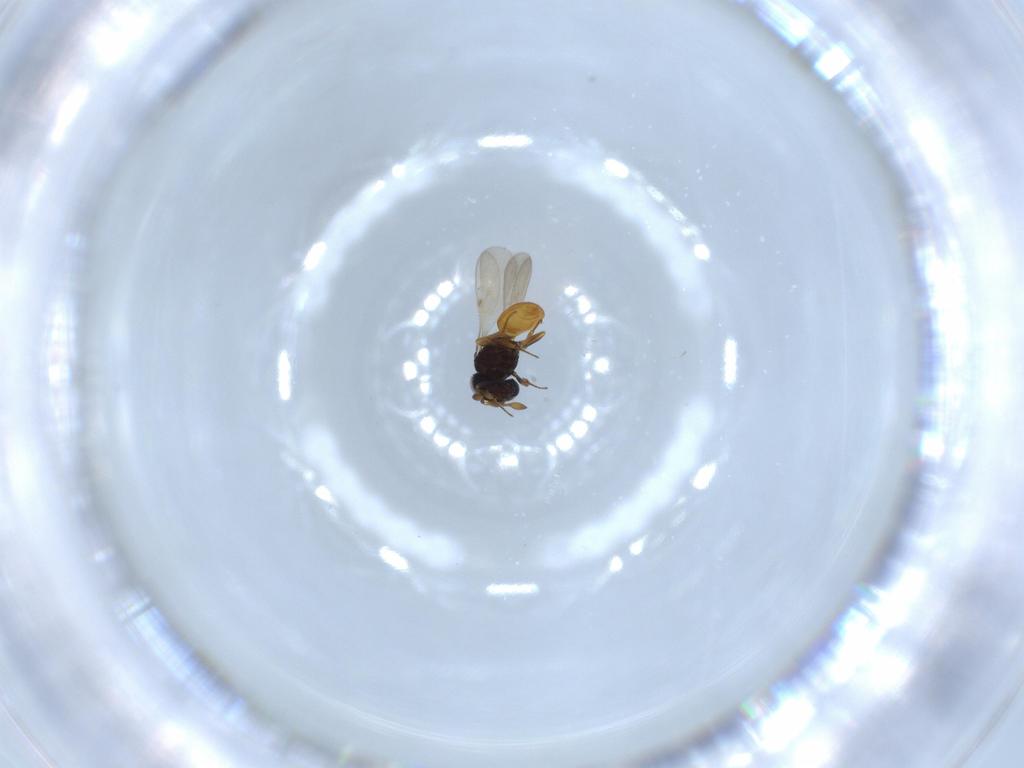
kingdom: Animalia
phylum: Arthropoda
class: Insecta
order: Hymenoptera
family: Scelionidae
